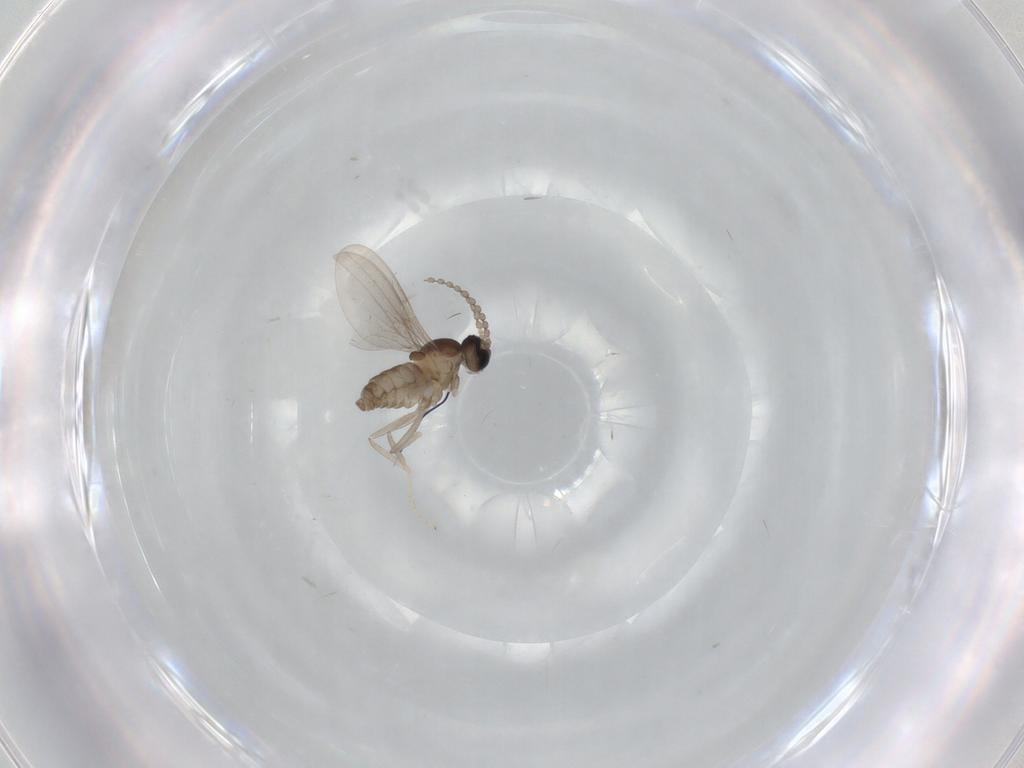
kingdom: Animalia
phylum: Arthropoda
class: Insecta
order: Diptera
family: Cecidomyiidae
